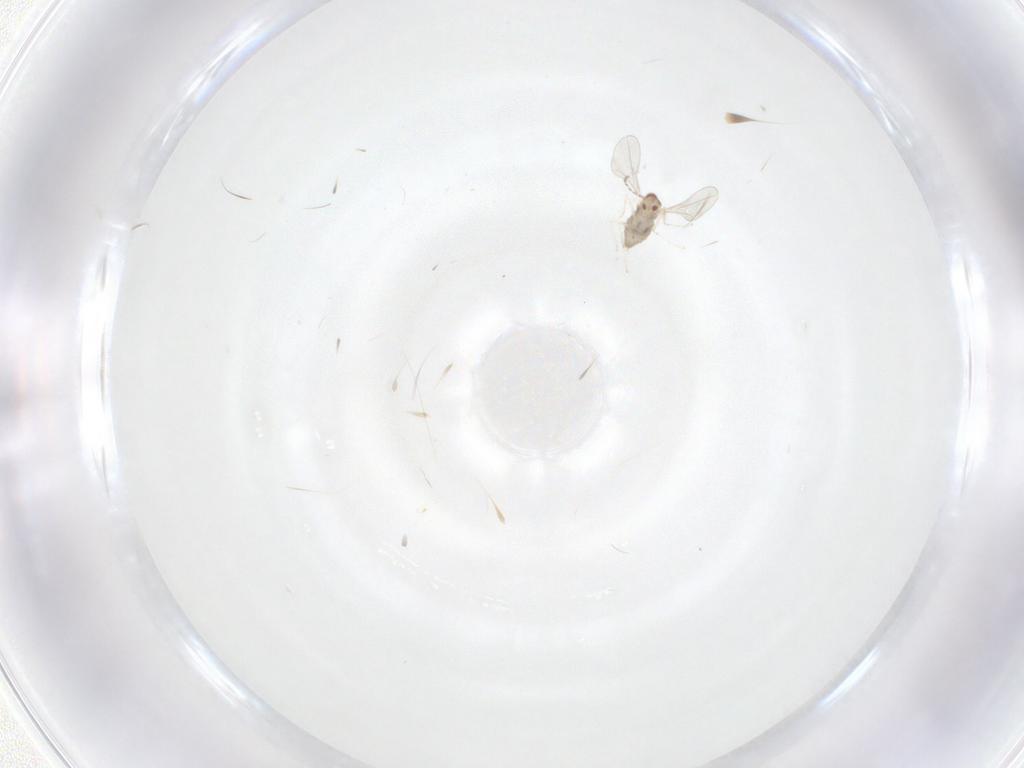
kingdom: Animalia
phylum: Arthropoda
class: Insecta
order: Diptera
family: Cecidomyiidae
